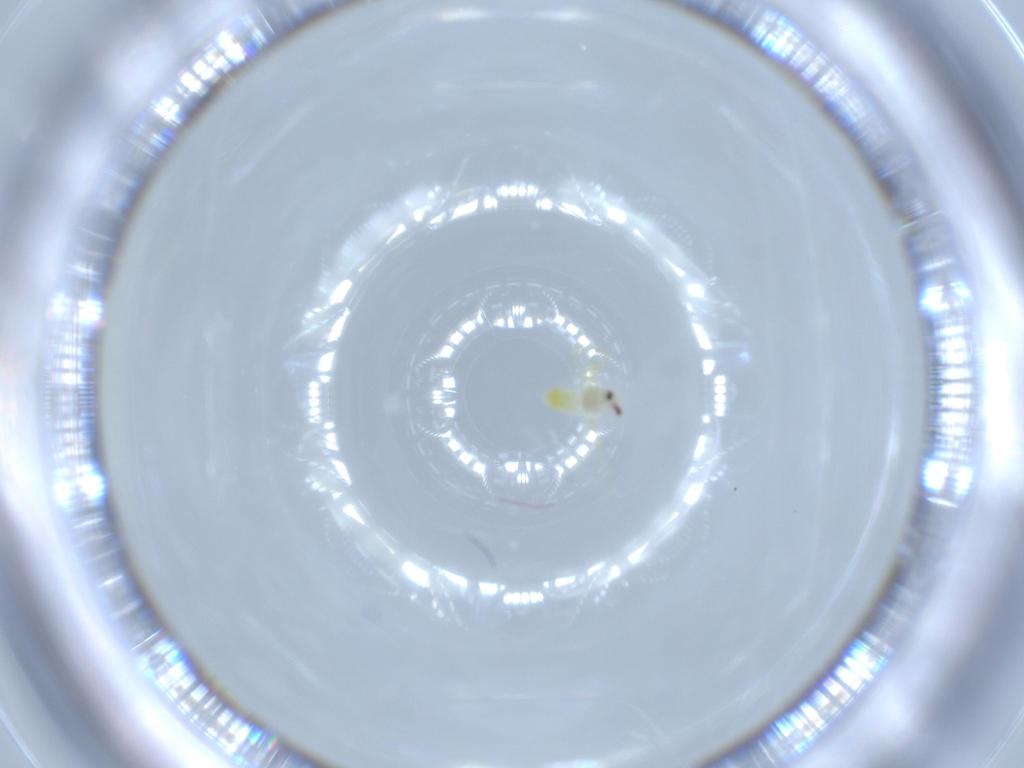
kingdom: Animalia
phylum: Arthropoda
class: Insecta
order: Hemiptera
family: Aleyrodidae
